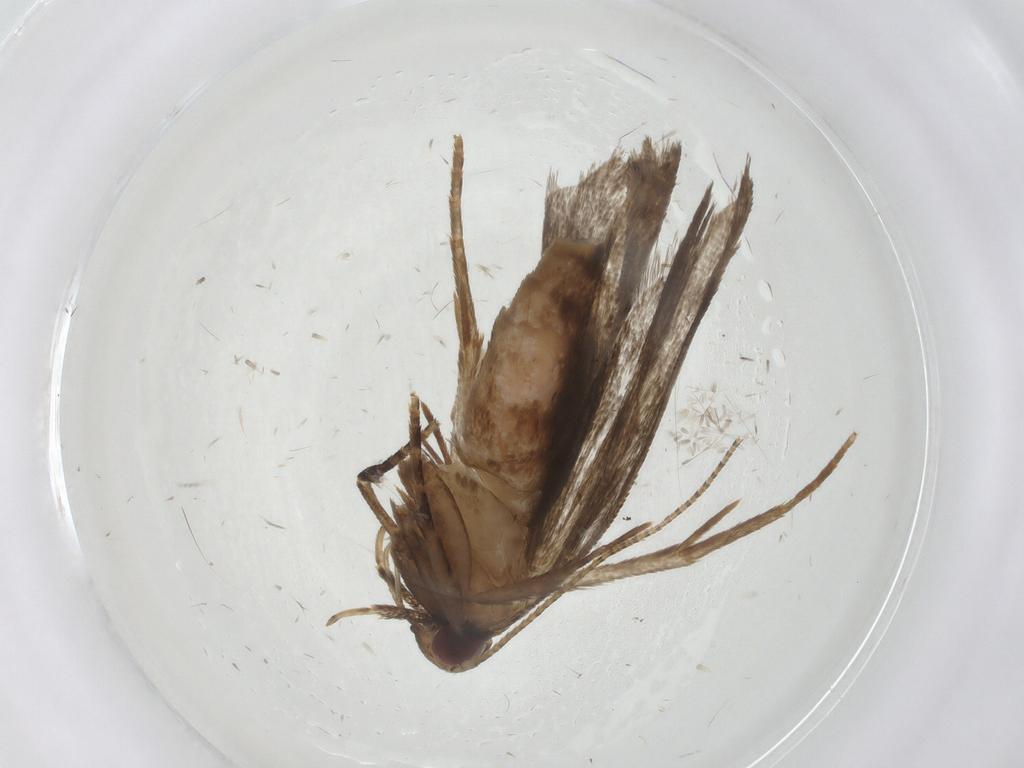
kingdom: Animalia
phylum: Arthropoda
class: Insecta
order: Lepidoptera
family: Gelechiidae
